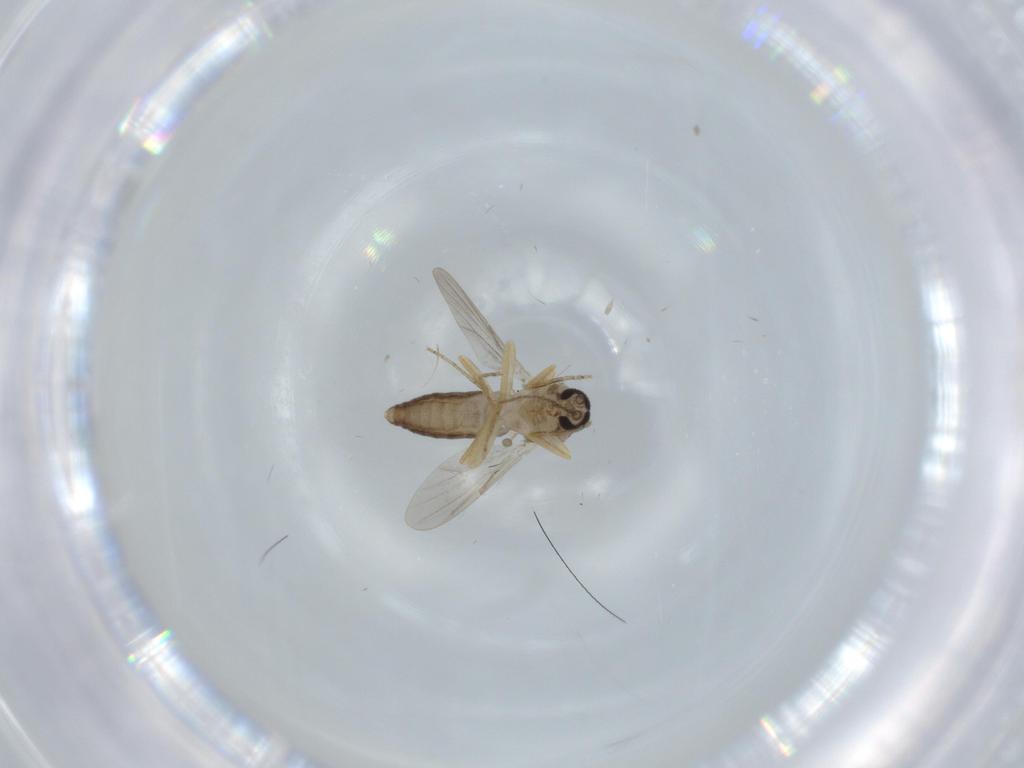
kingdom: Animalia
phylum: Arthropoda
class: Insecta
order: Diptera
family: Ceratopogonidae
